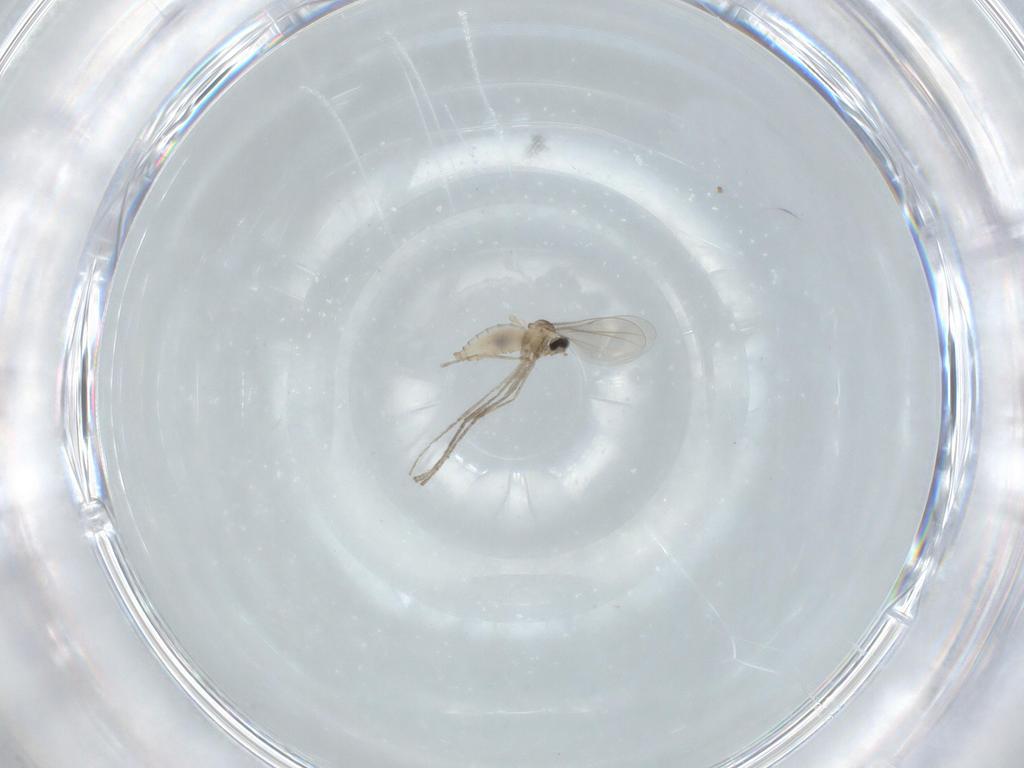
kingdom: Animalia
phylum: Arthropoda
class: Insecta
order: Diptera
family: Cecidomyiidae
